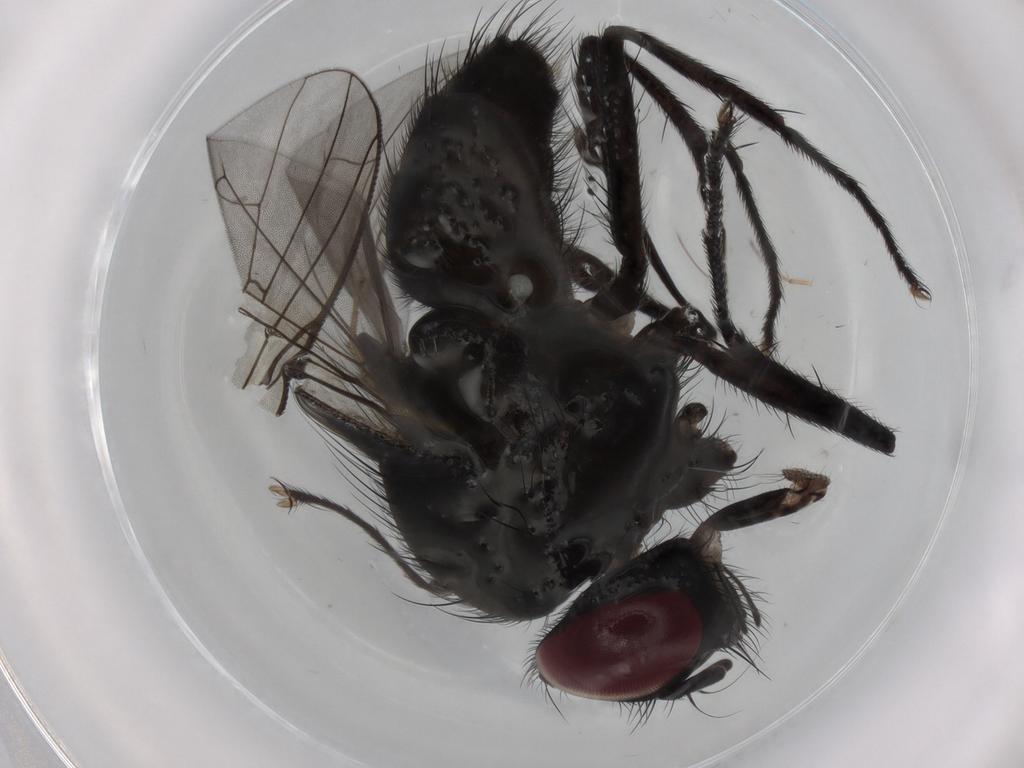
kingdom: Animalia
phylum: Arthropoda
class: Insecta
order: Diptera
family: Muscidae
